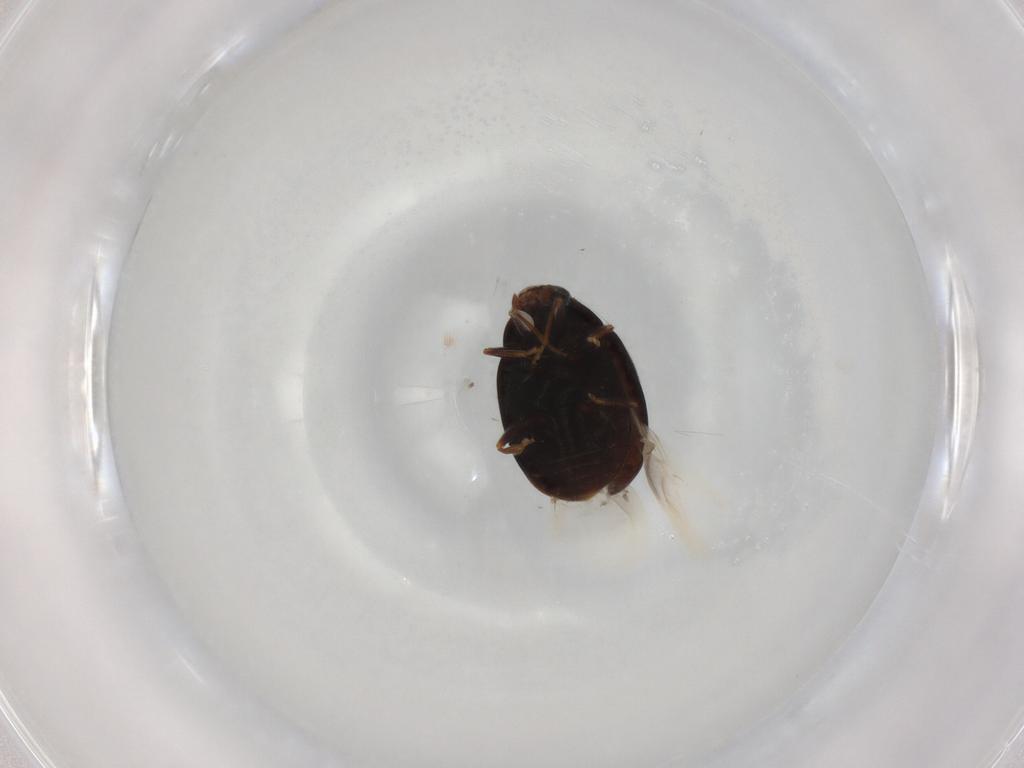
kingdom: Animalia
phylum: Arthropoda
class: Insecta
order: Coleoptera
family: Coccinellidae
